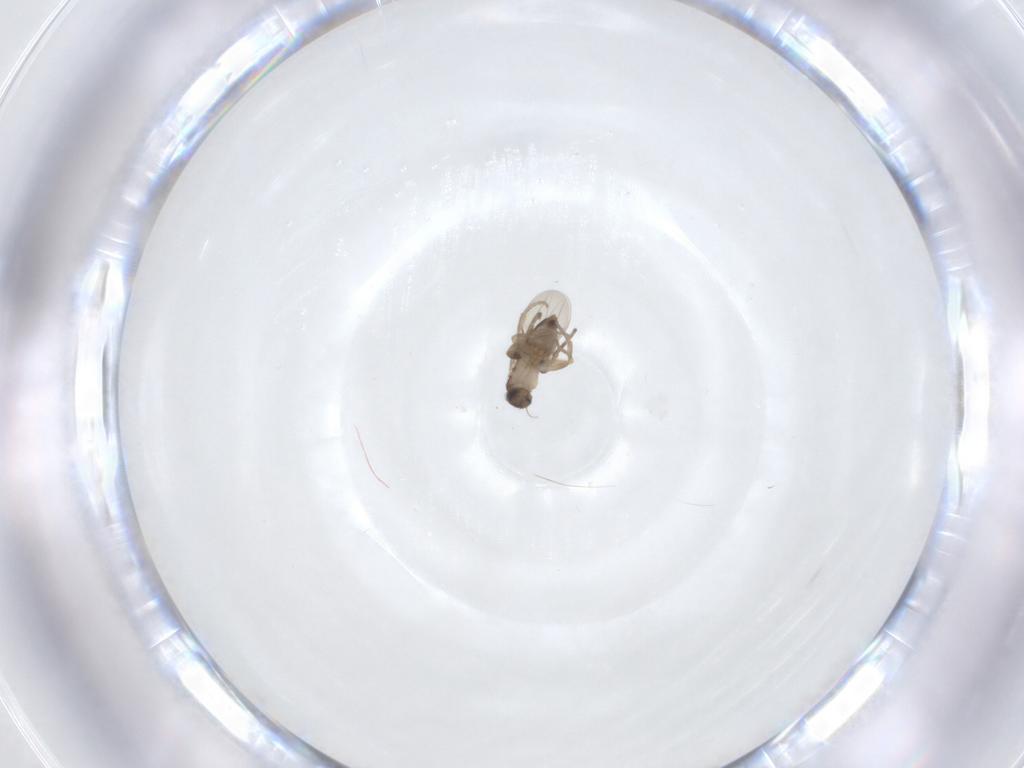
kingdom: Animalia
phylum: Arthropoda
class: Insecta
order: Diptera
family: Phoridae
